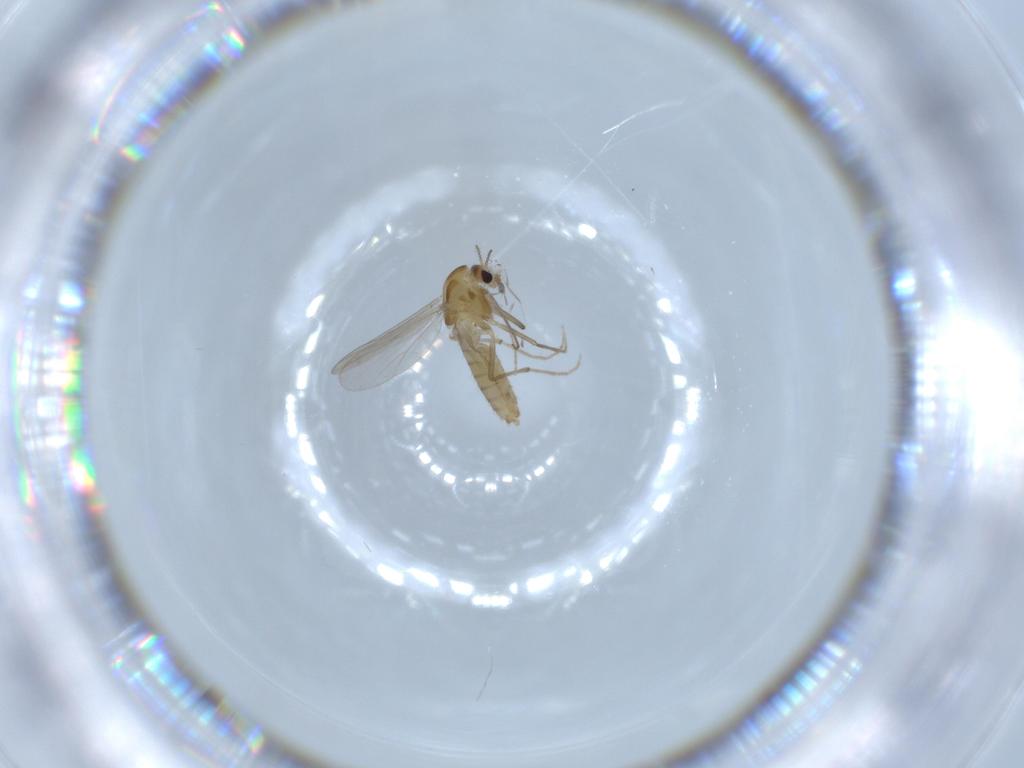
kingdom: Animalia
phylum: Arthropoda
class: Insecta
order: Diptera
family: Chironomidae
